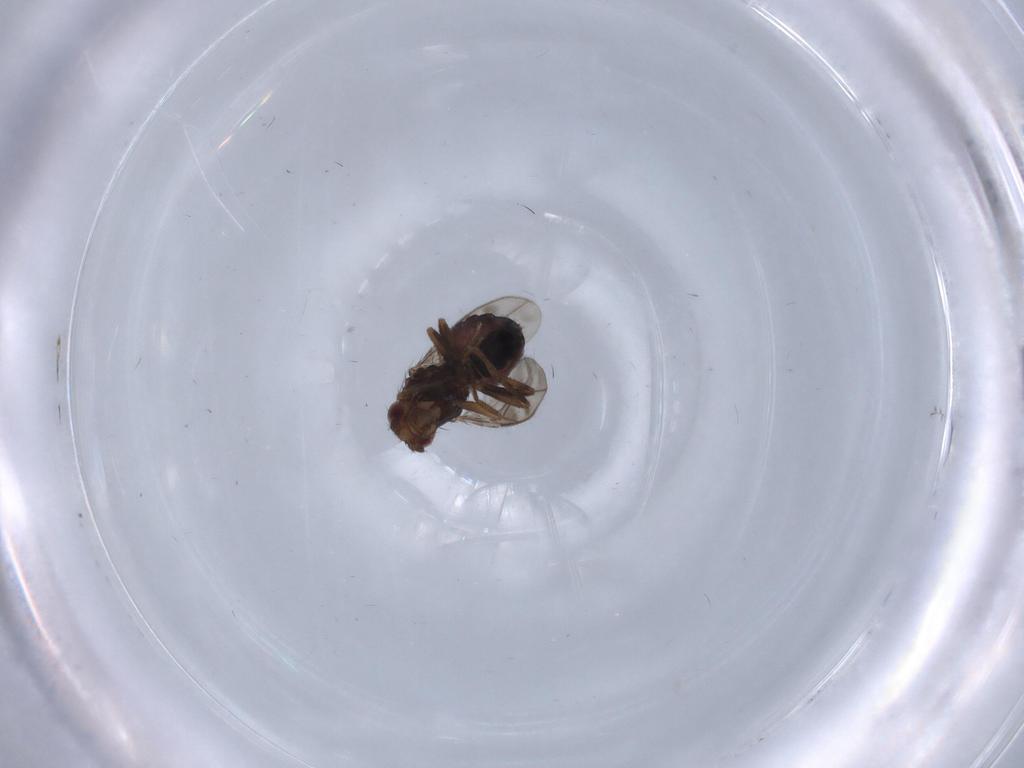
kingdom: Animalia
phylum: Arthropoda
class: Insecta
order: Diptera
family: Sphaeroceridae
